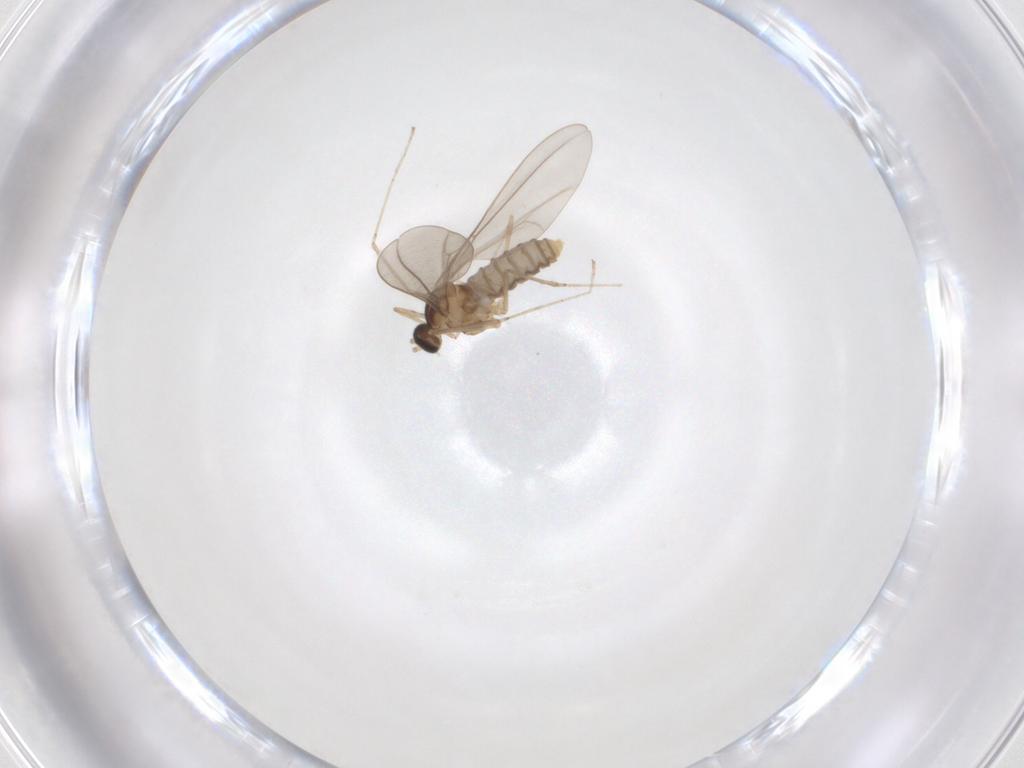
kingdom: Animalia
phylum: Arthropoda
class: Insecta
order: Diptera
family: Cecidomyiidae
